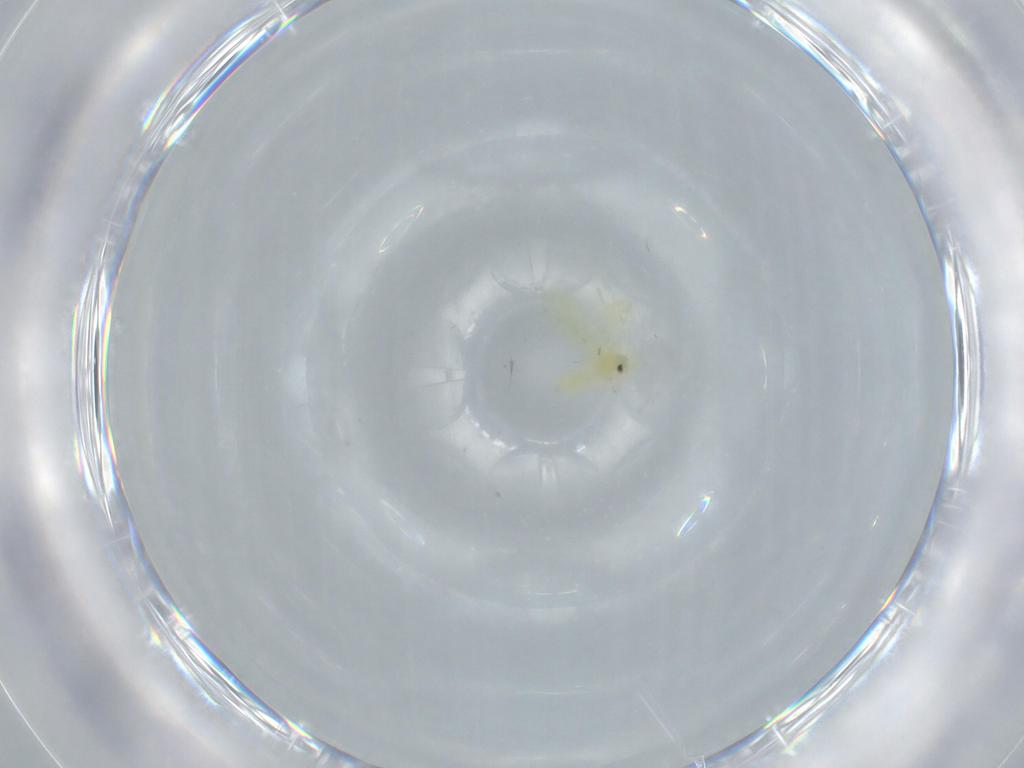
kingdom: Animalia
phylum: Arthropoda
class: Insecta
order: Hemiptera
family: Aleyrodidae
